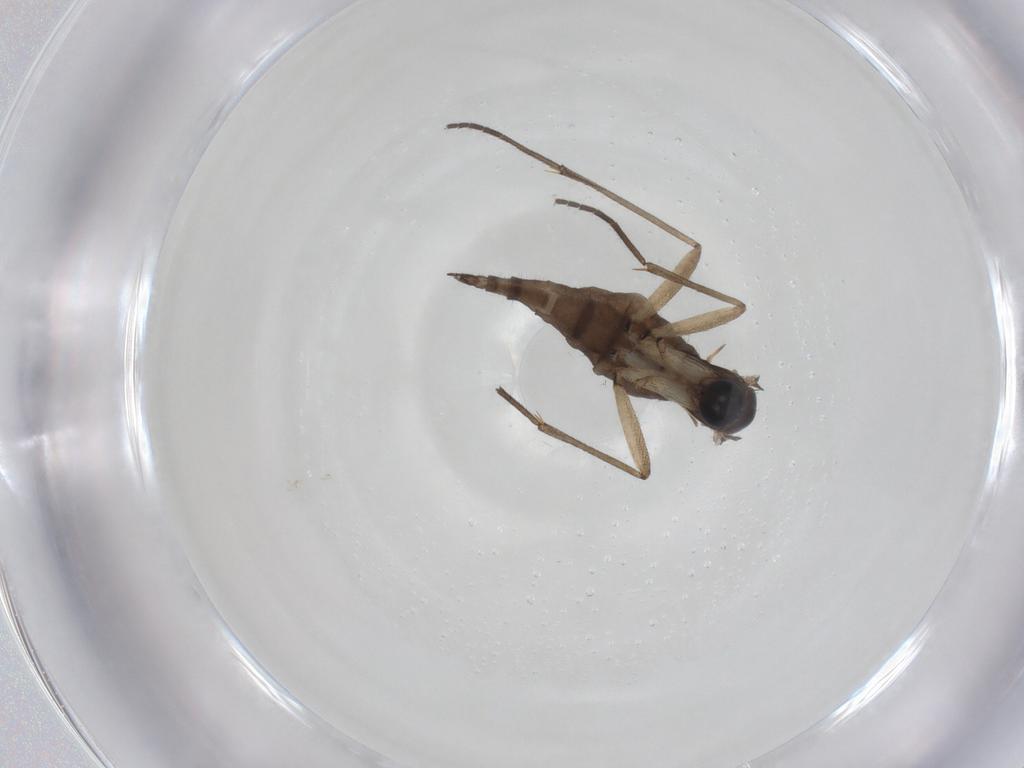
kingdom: Animalia
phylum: Arthropoda
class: Insecta
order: Diptera
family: Sciaridae
